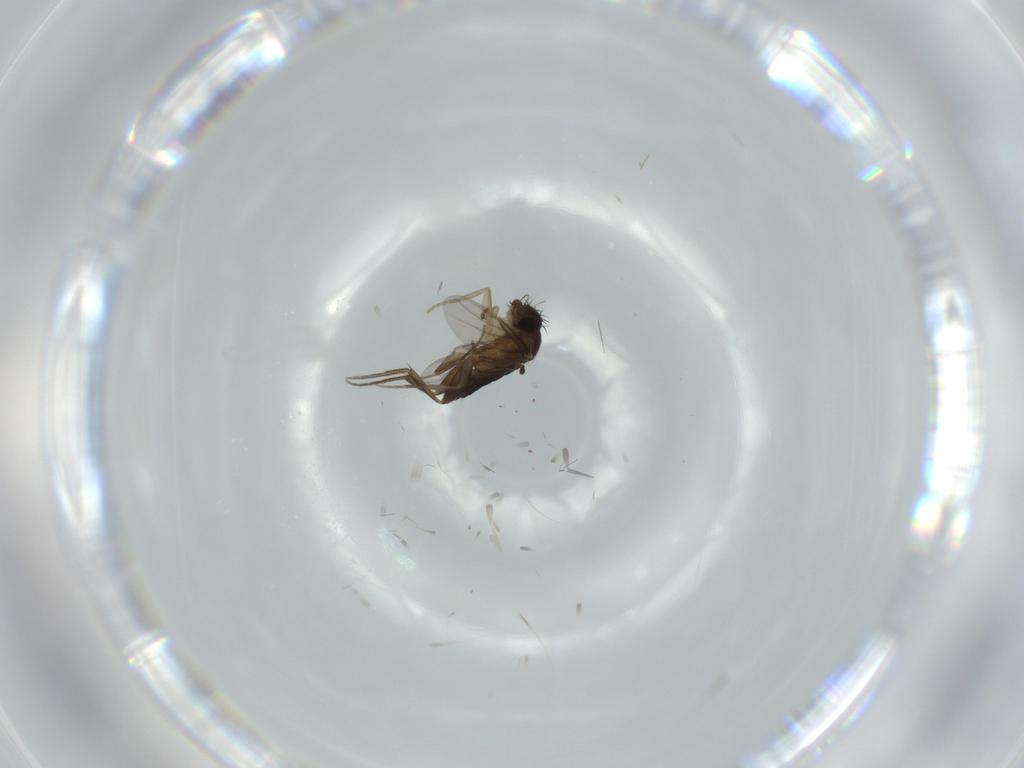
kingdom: Animalia
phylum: Arthropoda
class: Insecta
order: Diptera
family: Phoridae
